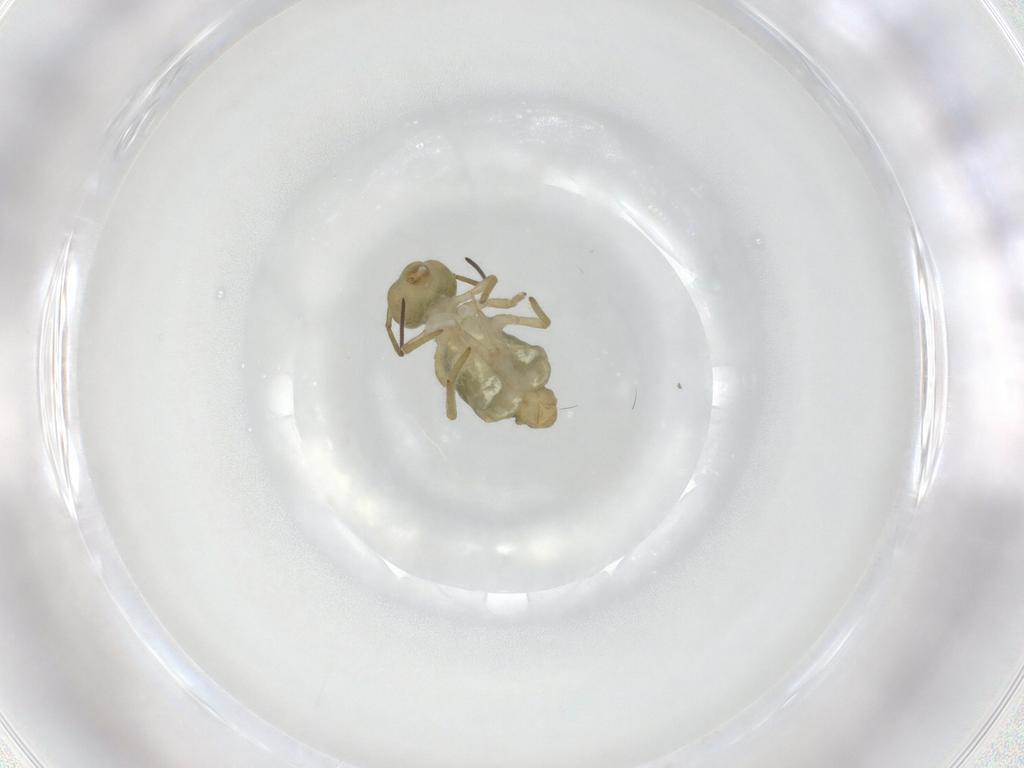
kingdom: Animalia
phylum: Arthropoda
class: Collembola
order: Symphypleona
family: Sminthuridae
